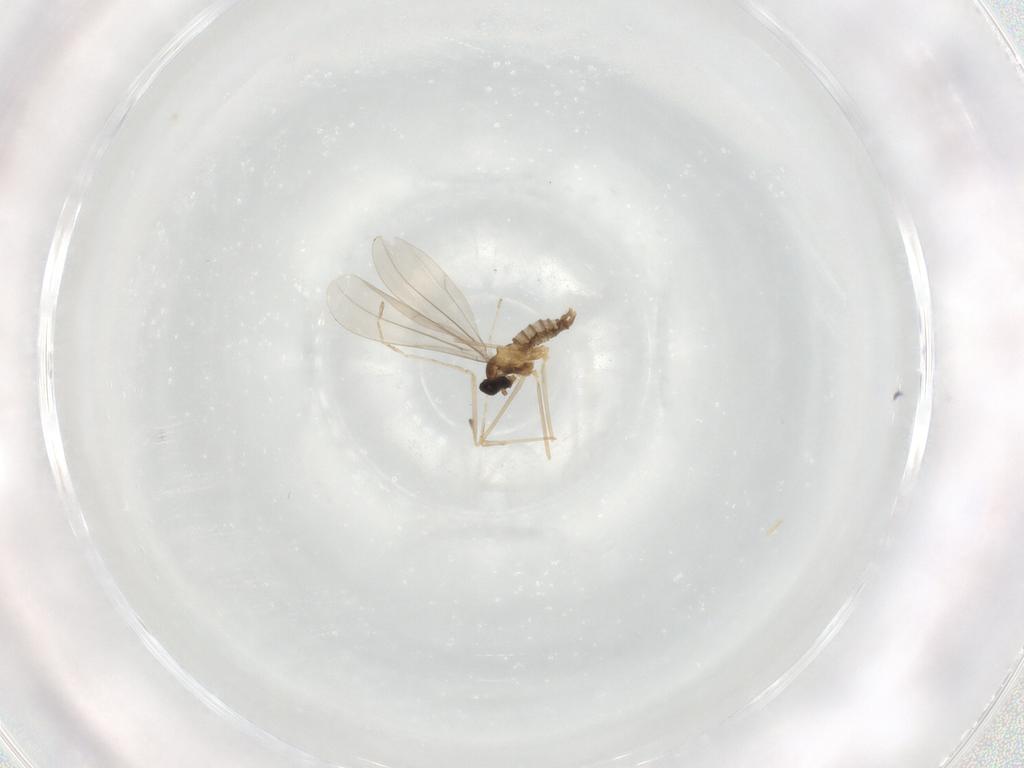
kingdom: Animalia
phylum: Arthropoda
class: Insecta
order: Diptera
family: Cecidomyiidae
